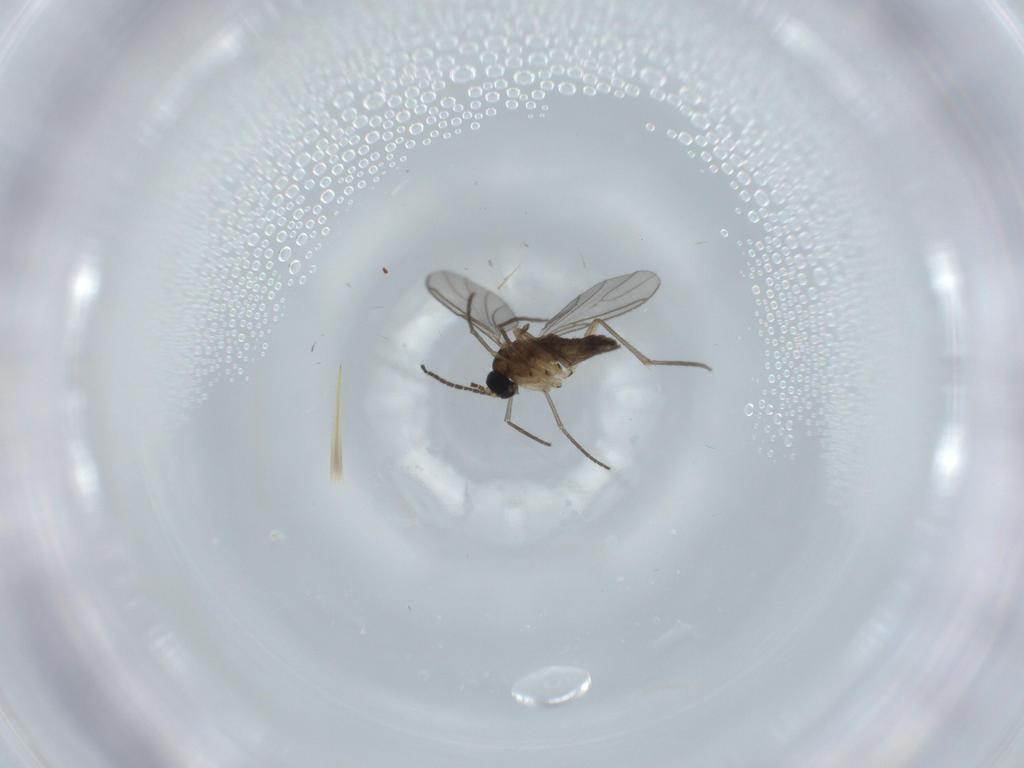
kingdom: Animalia
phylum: Arthropoda
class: Insecta
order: Diptera
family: Sciaridae
